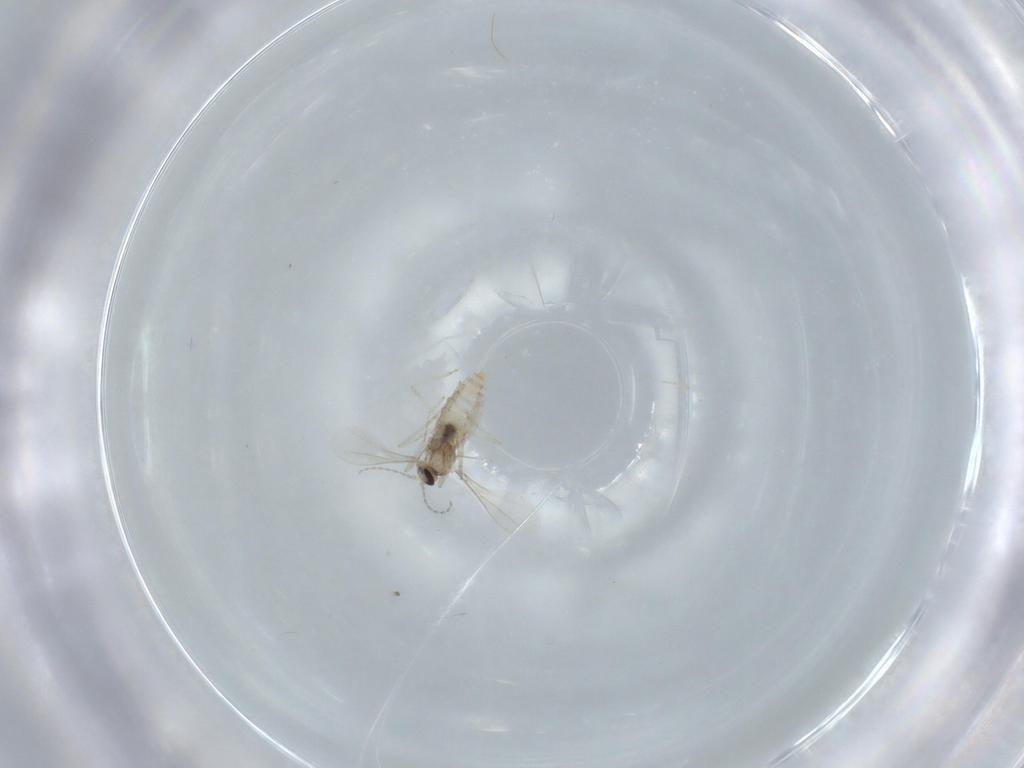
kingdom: Animalia
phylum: Arthropoda
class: Insecta
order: Diptera
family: Cecidomyiidae
